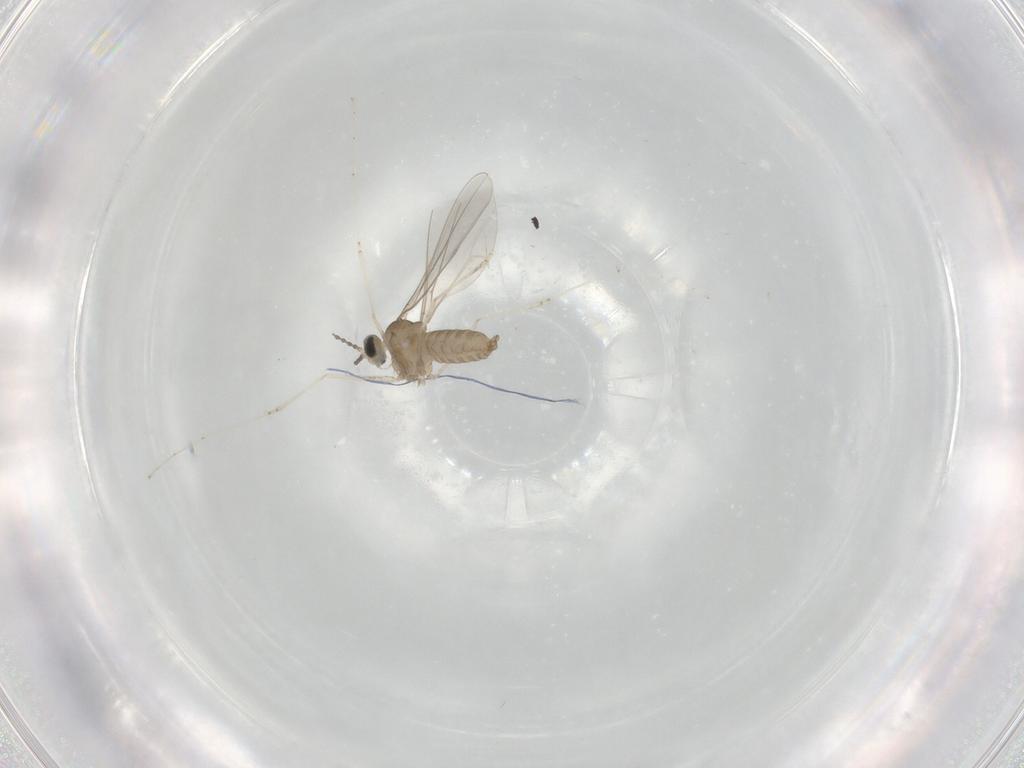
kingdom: Animalia
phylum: Arthropoda
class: Insecta
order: Diptera
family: Cecidomyiidae
